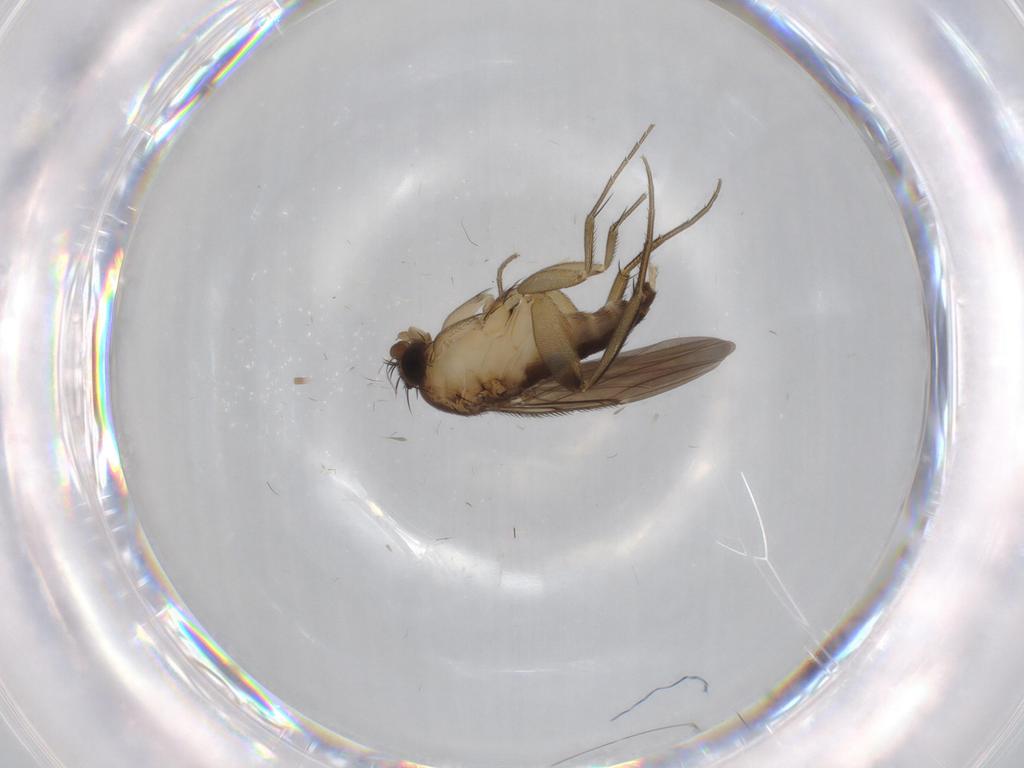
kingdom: Animalia
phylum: Arthropoda
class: Insecta
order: Diptera
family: Phoridae
